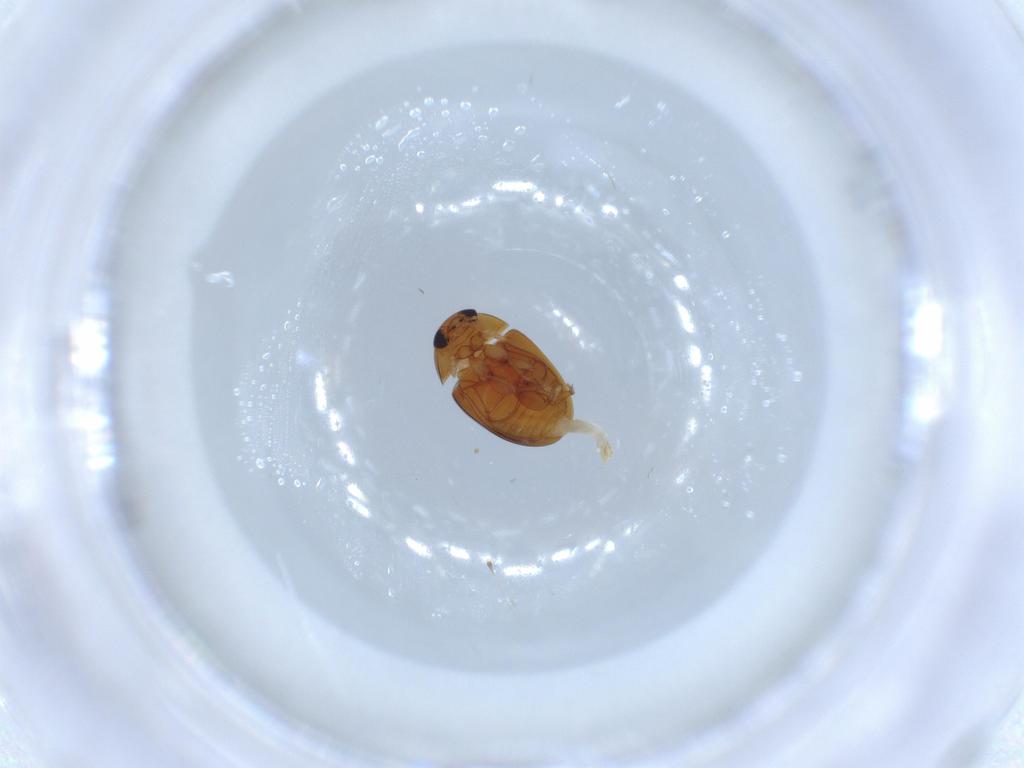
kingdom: Animalia
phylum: Arthropoda
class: Insecta
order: Coleoptera
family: Phalacridae
